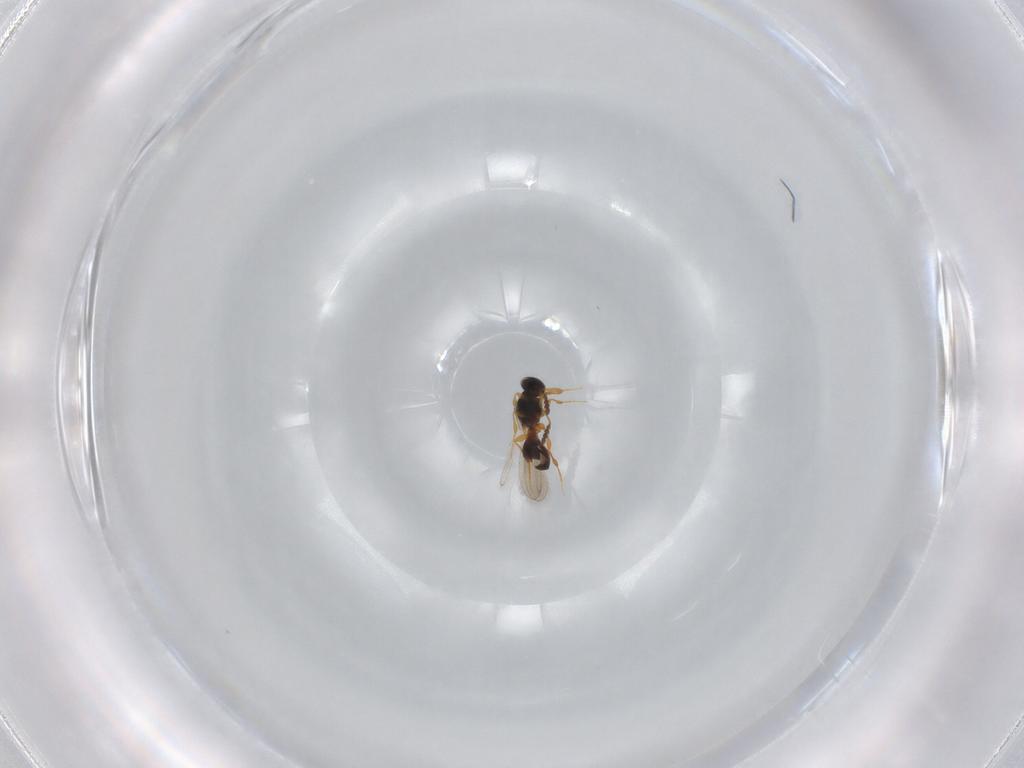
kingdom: Animalia
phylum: Arthropoda
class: Insecta
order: Hymenoptera
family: Platygastridae
